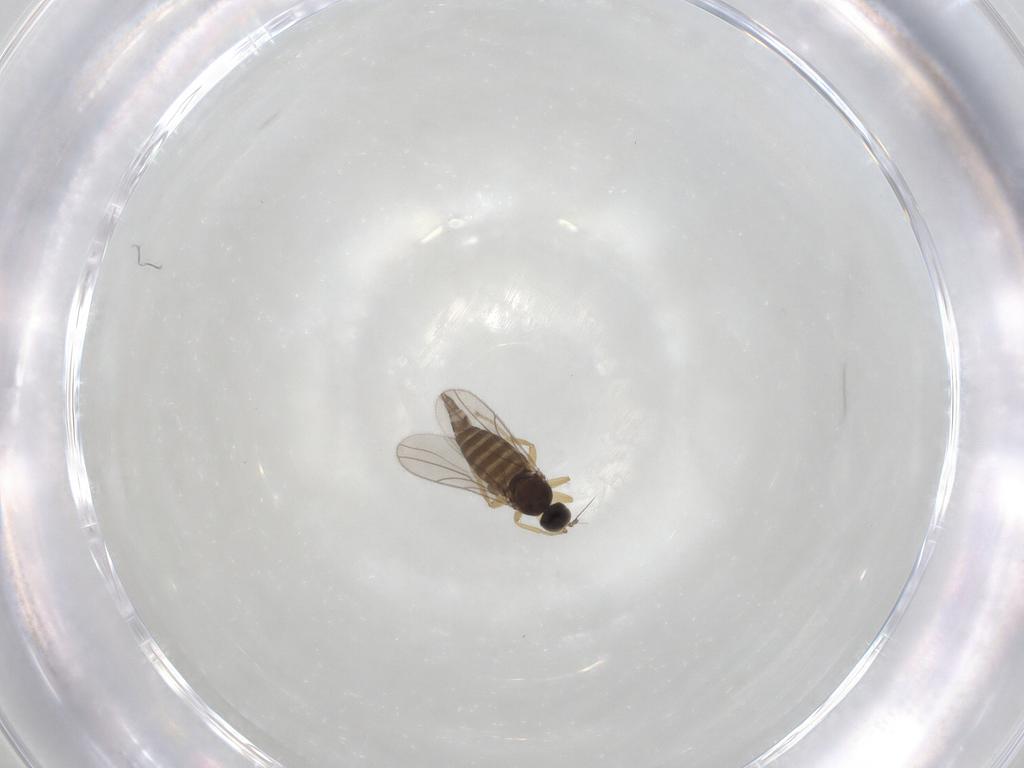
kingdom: Animalia
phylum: Arthropoda
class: Insecta
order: Diptera
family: Hybotidae
